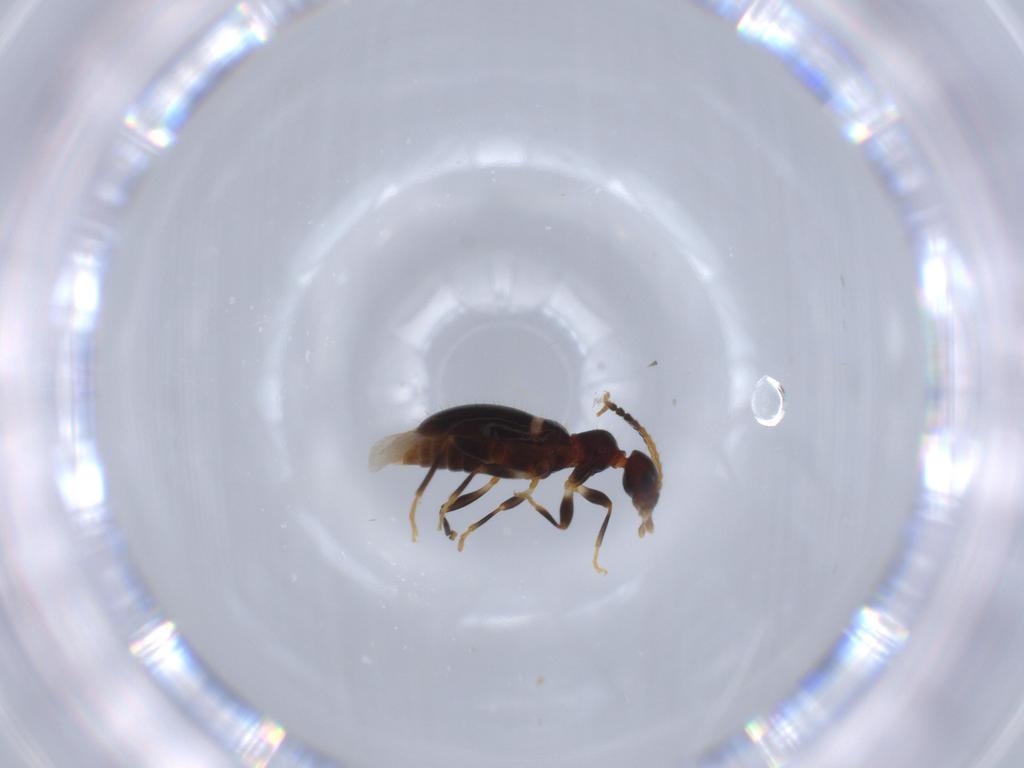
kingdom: Animalia
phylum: Arthropoda
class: Insecta
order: Coleoptera
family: Anthicidae
